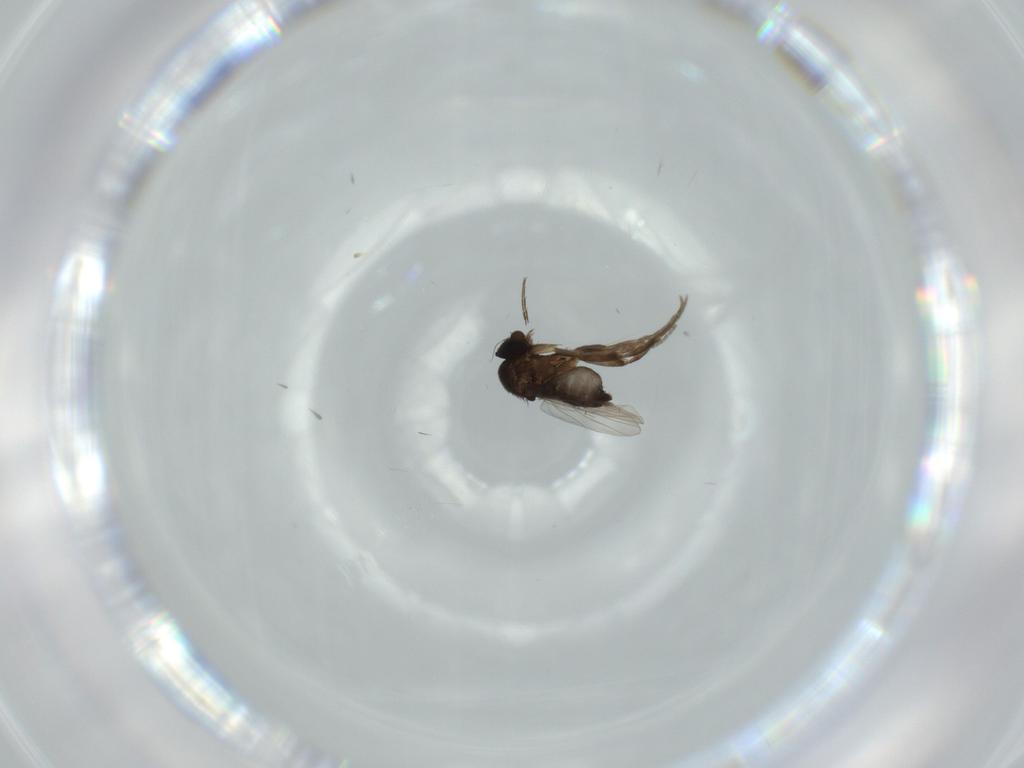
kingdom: Animalia
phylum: Arthropoda
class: Insecta
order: Diptera
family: Phoridae
